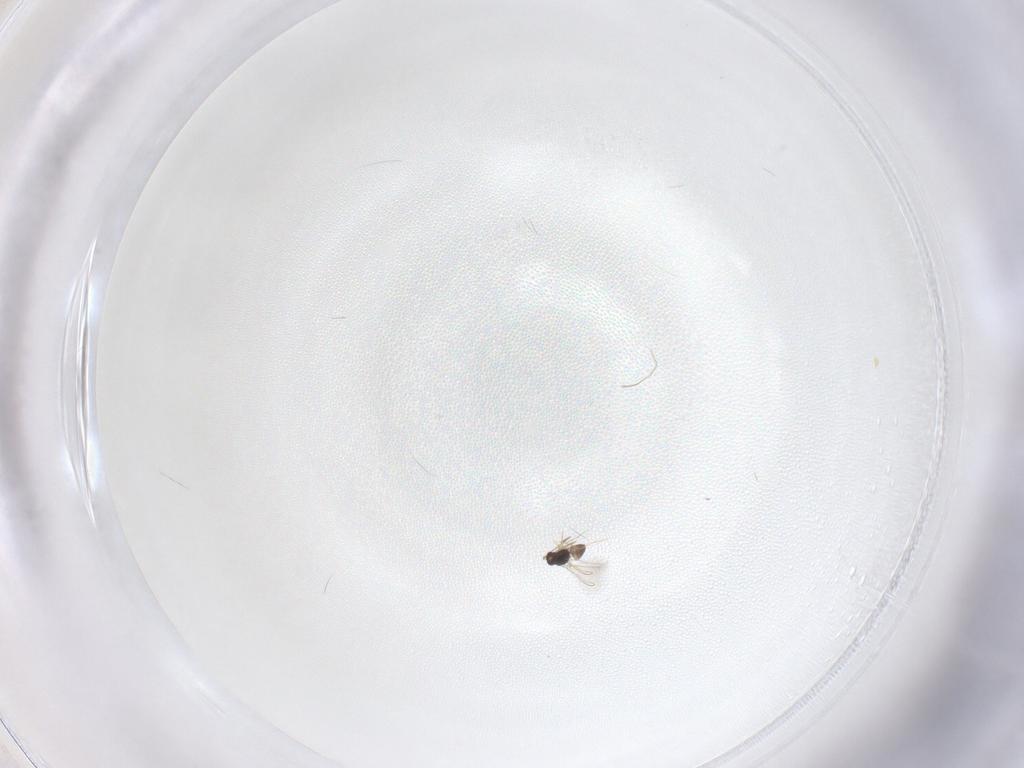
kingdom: Animalia
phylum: Arthropoda
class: Insecta
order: Hymenoptera
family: Mymaridae
